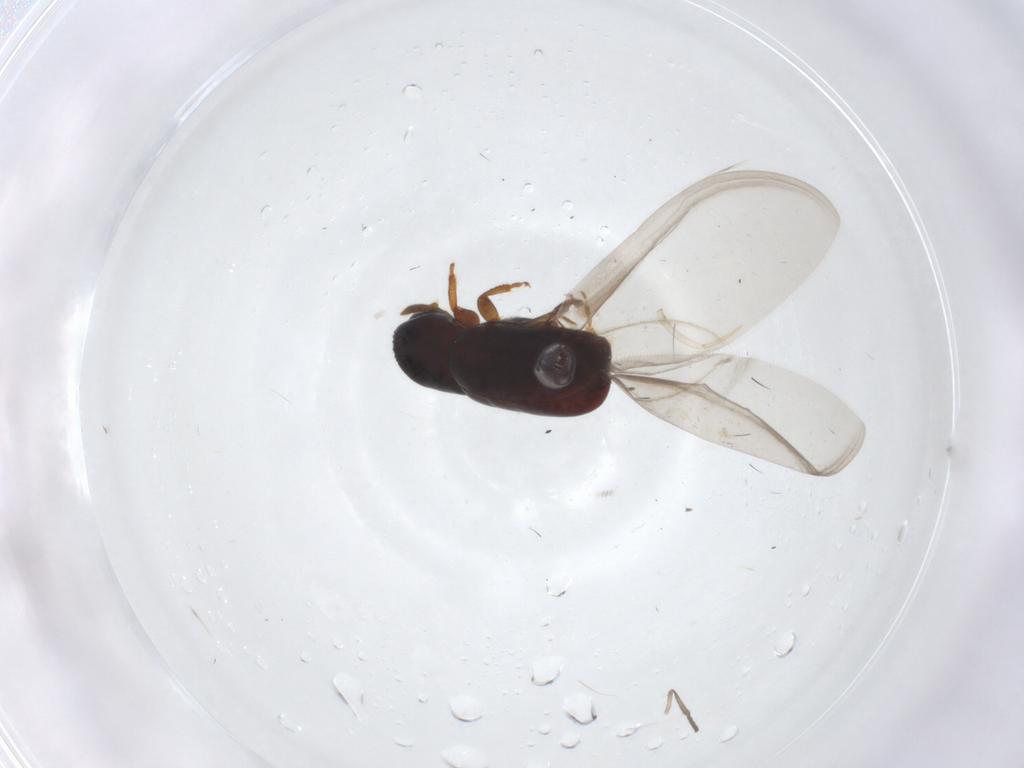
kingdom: Animalia
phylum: Arthropoda
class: Insecta
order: Coleoptera
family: Curculionidae
